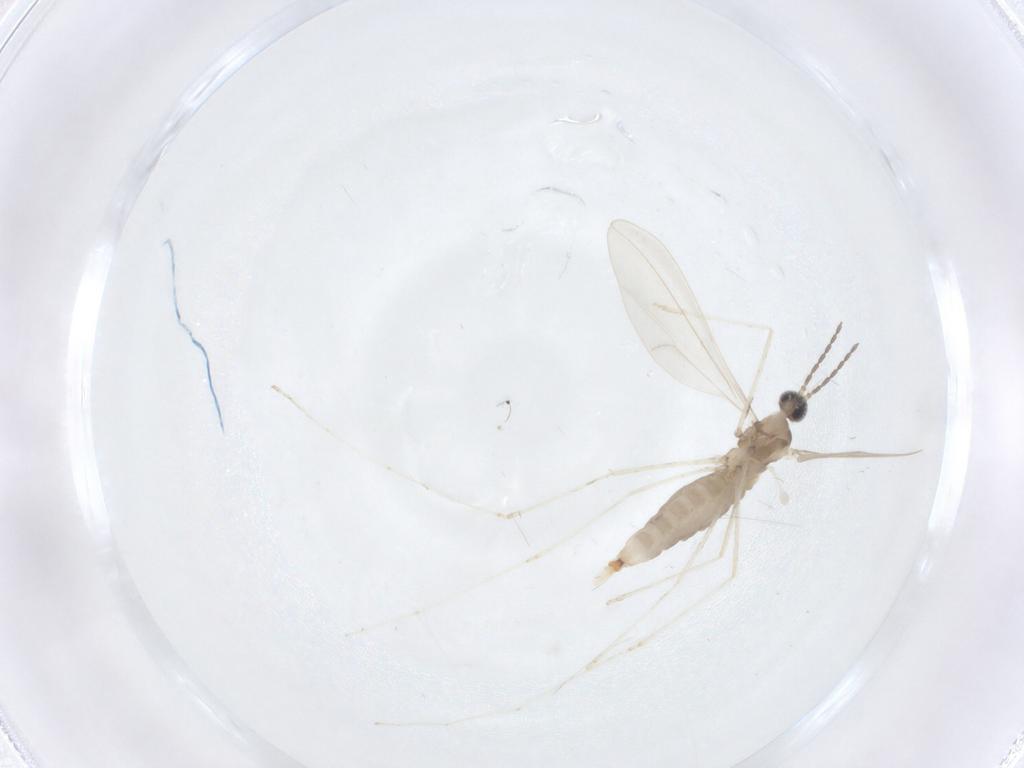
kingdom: Animalia
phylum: Arthropoda
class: Insecta
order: Diptera
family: Cecidomyiidae
